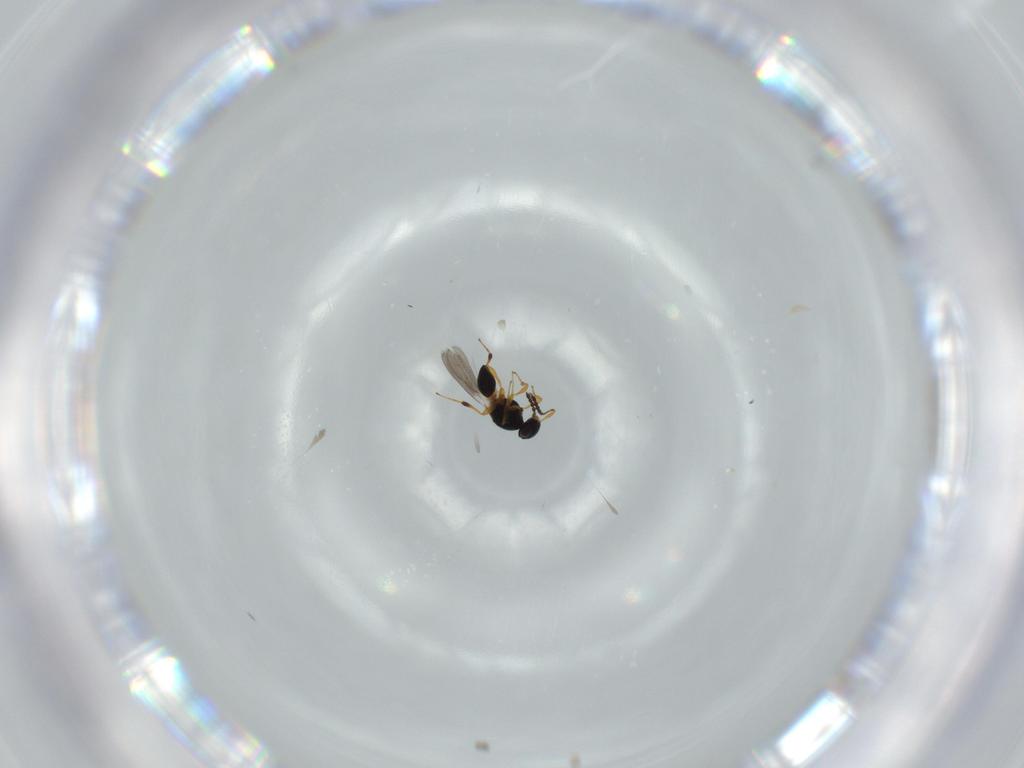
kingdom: Animalia
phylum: Arthropoda
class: Insecta
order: Hymenoptera
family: Platygastridae
